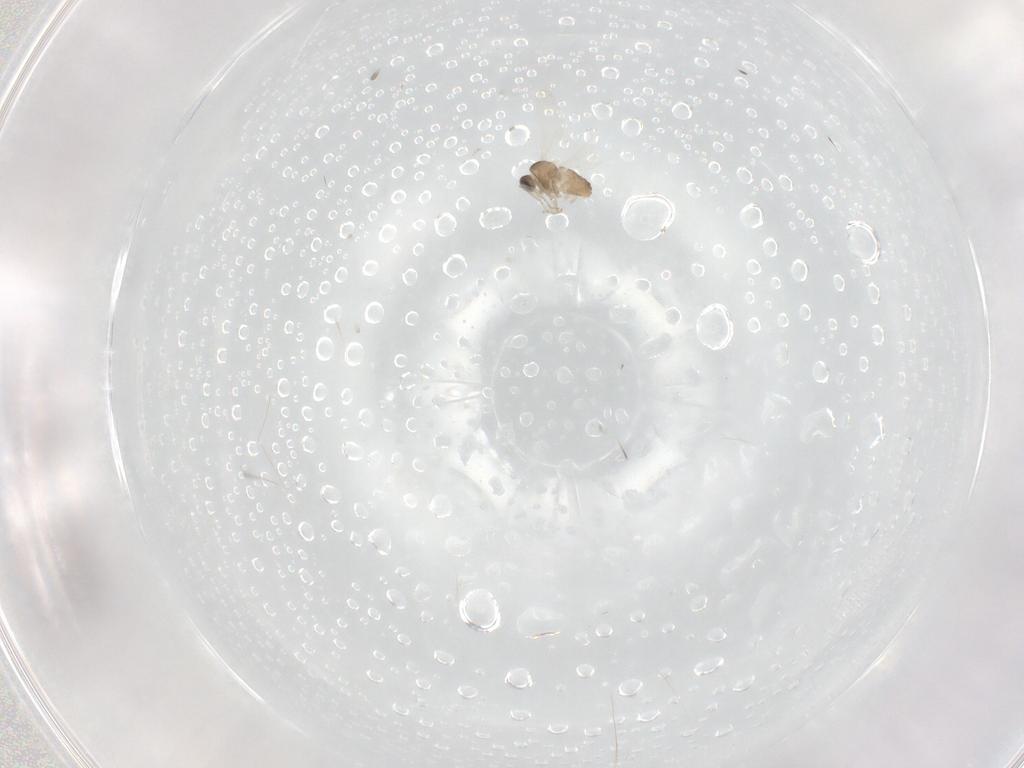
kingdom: Animalia
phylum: Arthropoda
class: Insecta
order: Diptera
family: Cecidomyiidae
